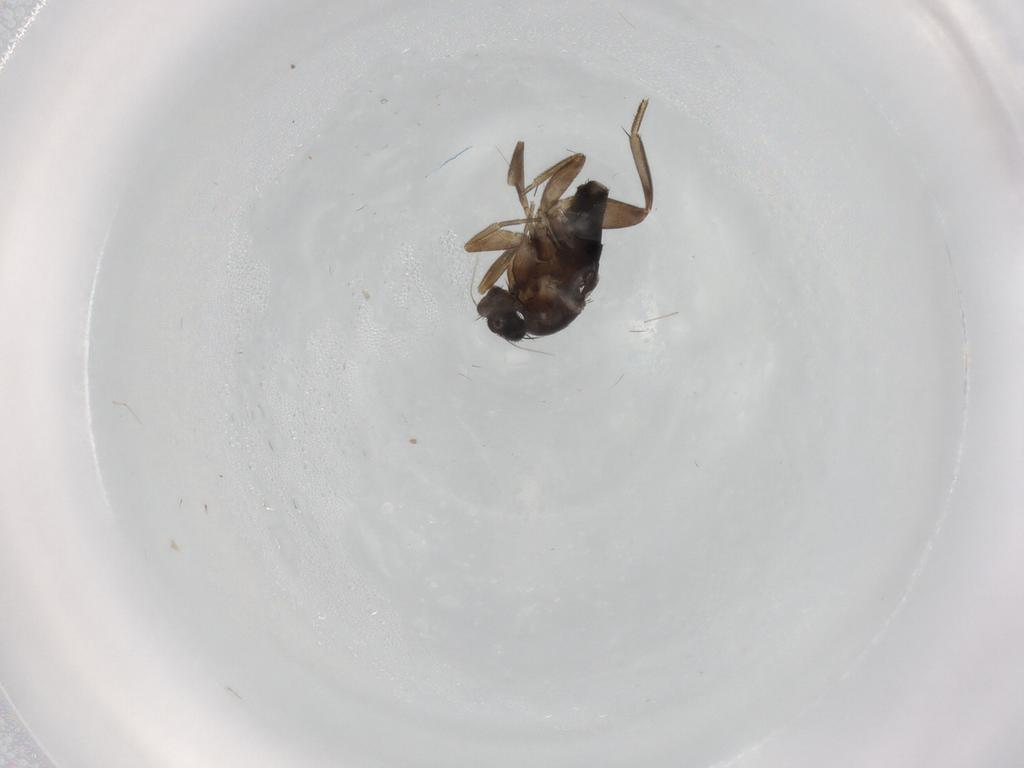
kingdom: Animalia
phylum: Arthropoda
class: Insecta
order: Diptera
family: Phoridae
